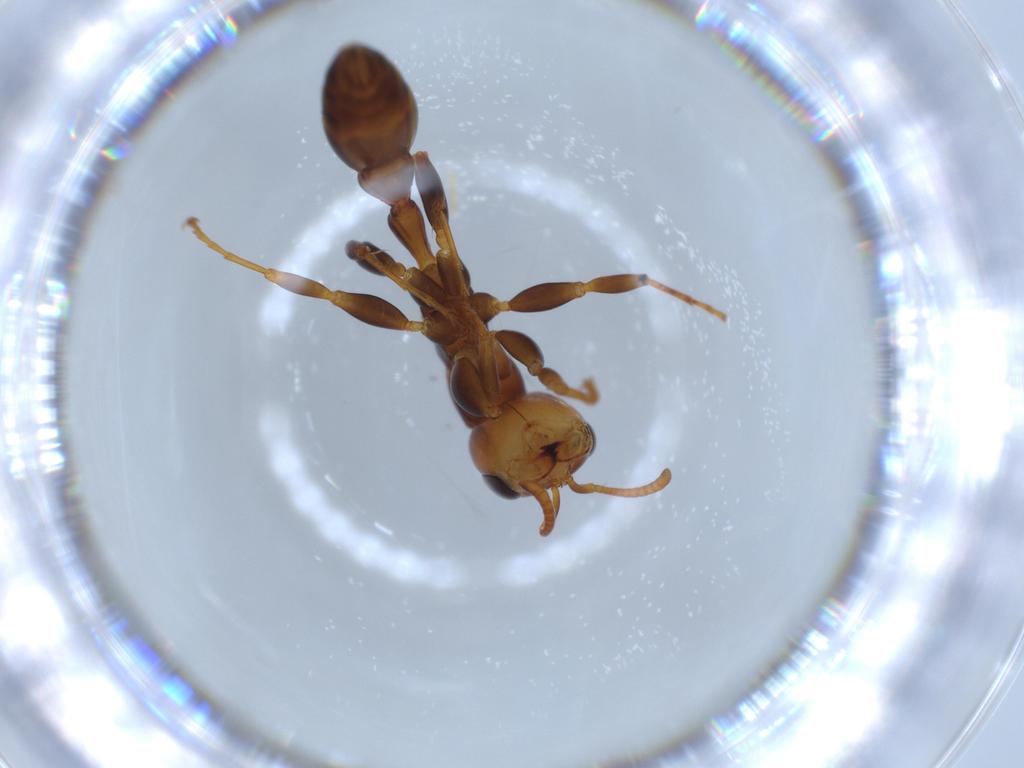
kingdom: Animalia
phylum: Arthropoda
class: Insecta
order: Hymenoptera
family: Formicidae
